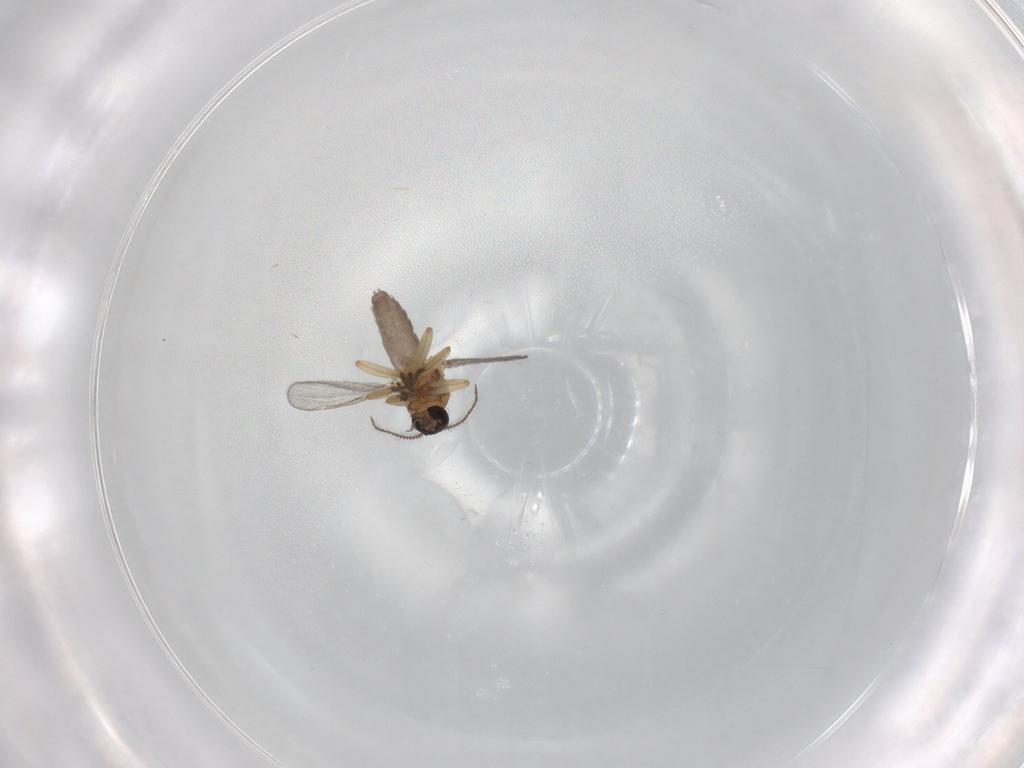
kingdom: Animalia
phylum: Arthropoda
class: Insecta
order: Diptera
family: Ceratopogonidae
